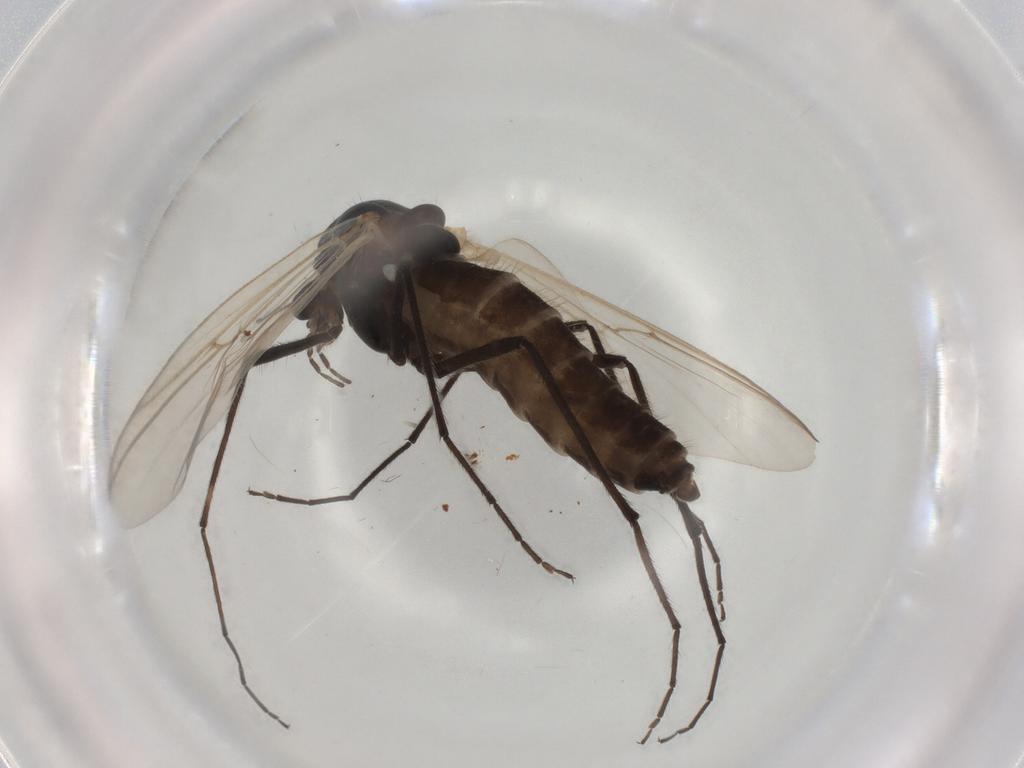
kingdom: Animalia
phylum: Arthropoda
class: Insecta
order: Diptera
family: Chironomidae
